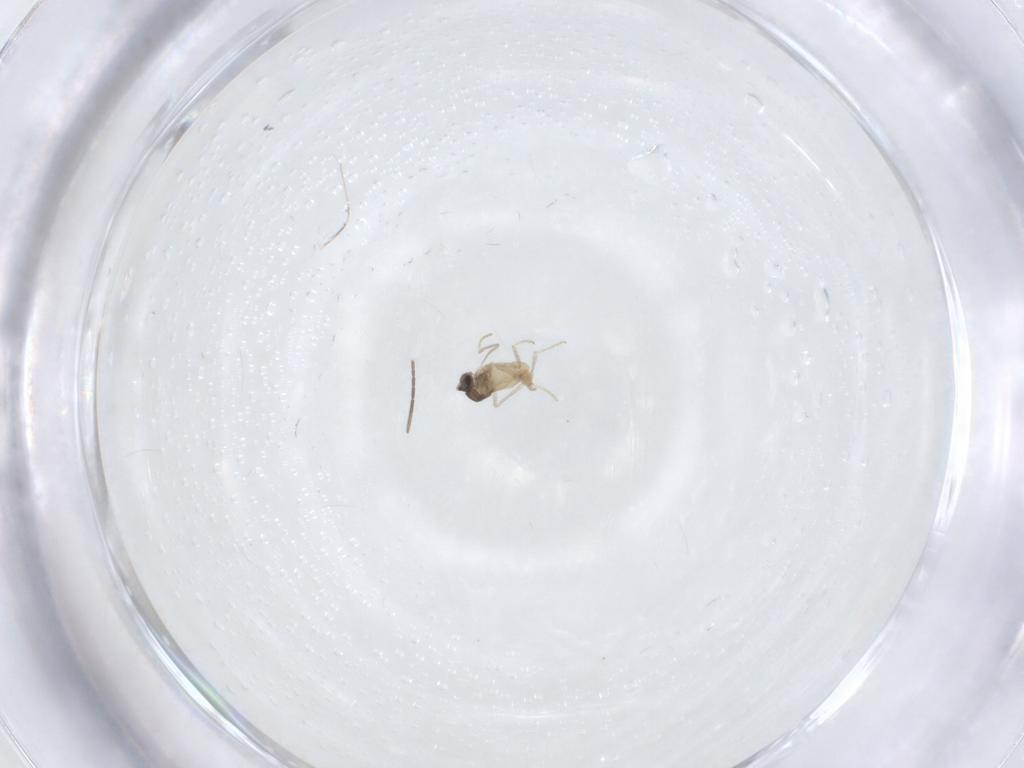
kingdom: Animalia
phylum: Arthropoda
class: Insecta
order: Diptera
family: Cecidomyiidae
